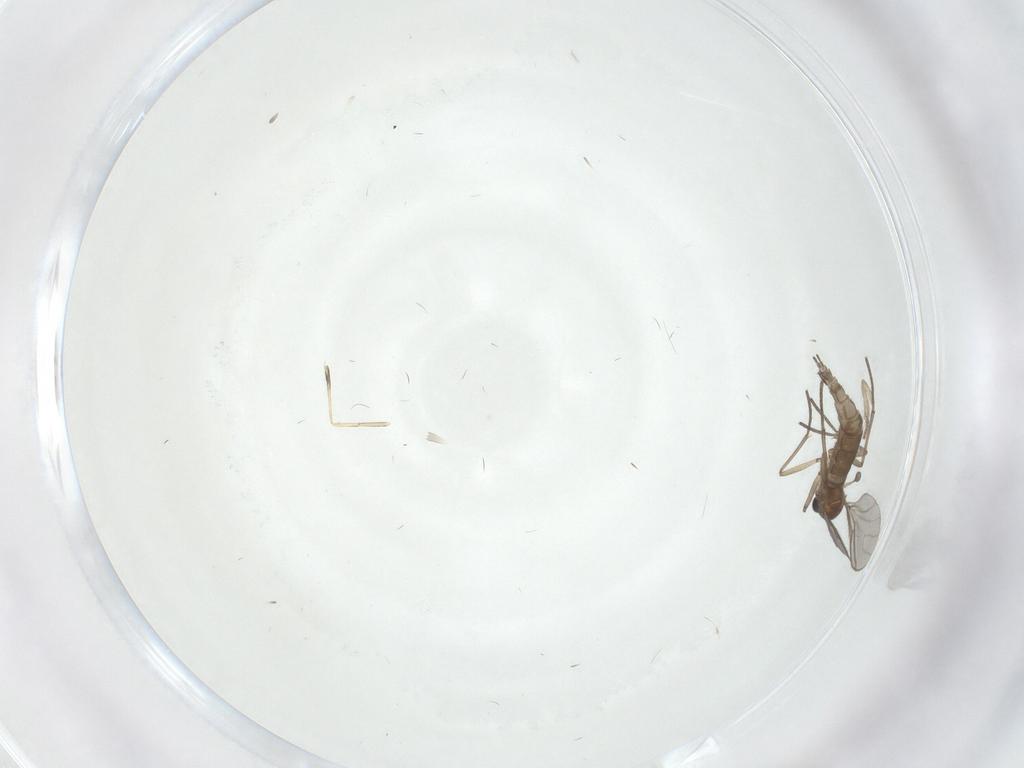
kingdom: Animalia
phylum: Arthropoda
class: Insecta
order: Diptera
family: Sciaridae
